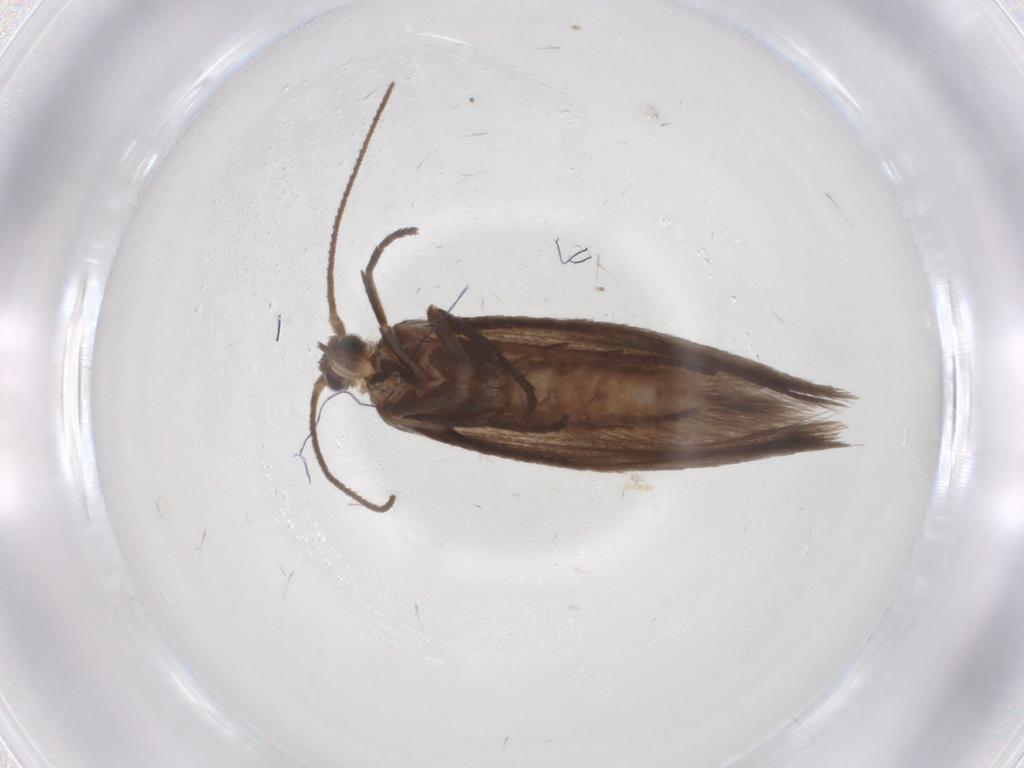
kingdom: Animalia
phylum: Arthropoda
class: Insecta
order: Lepidoptera
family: Limacodidae
